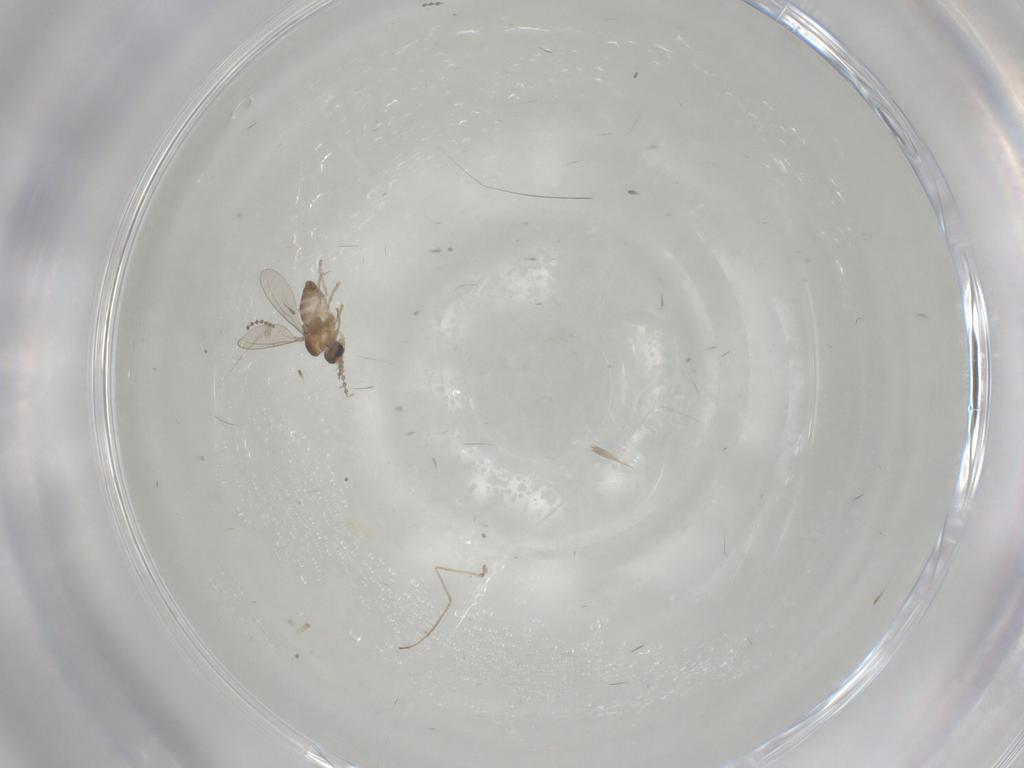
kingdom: Animalia
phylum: Arthropoda
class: Insecta
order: Diptera
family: Cecidomyiidae
